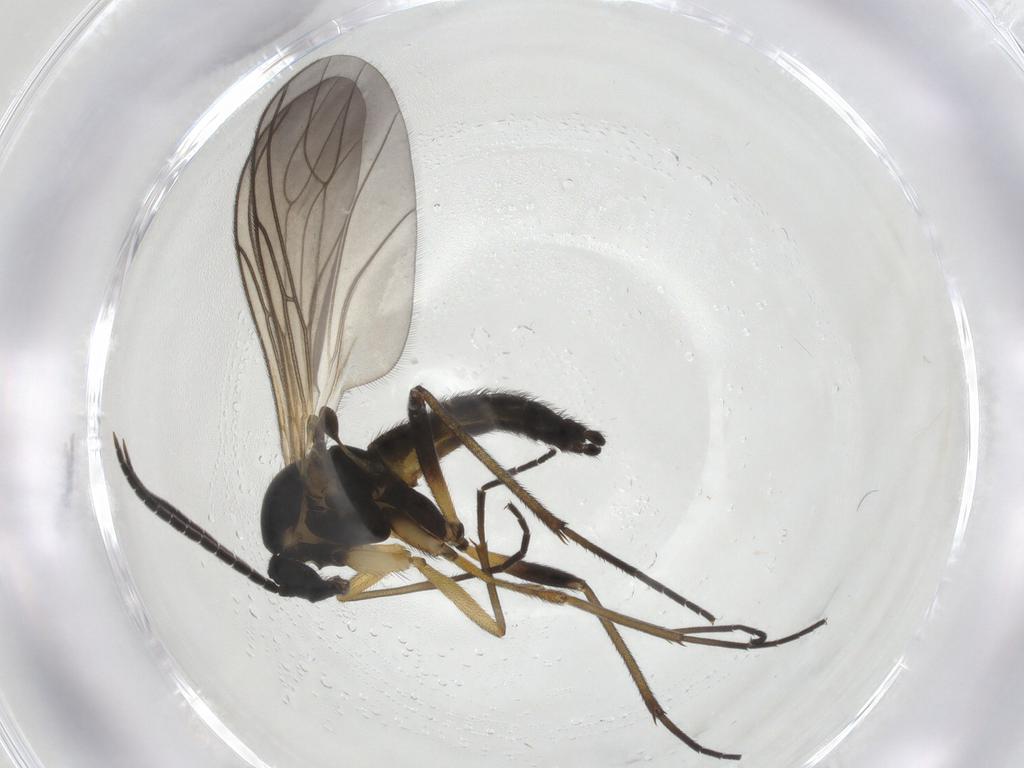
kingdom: Animalia
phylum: Arthropoda
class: Insecta
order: Diptera
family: Sciaridae
